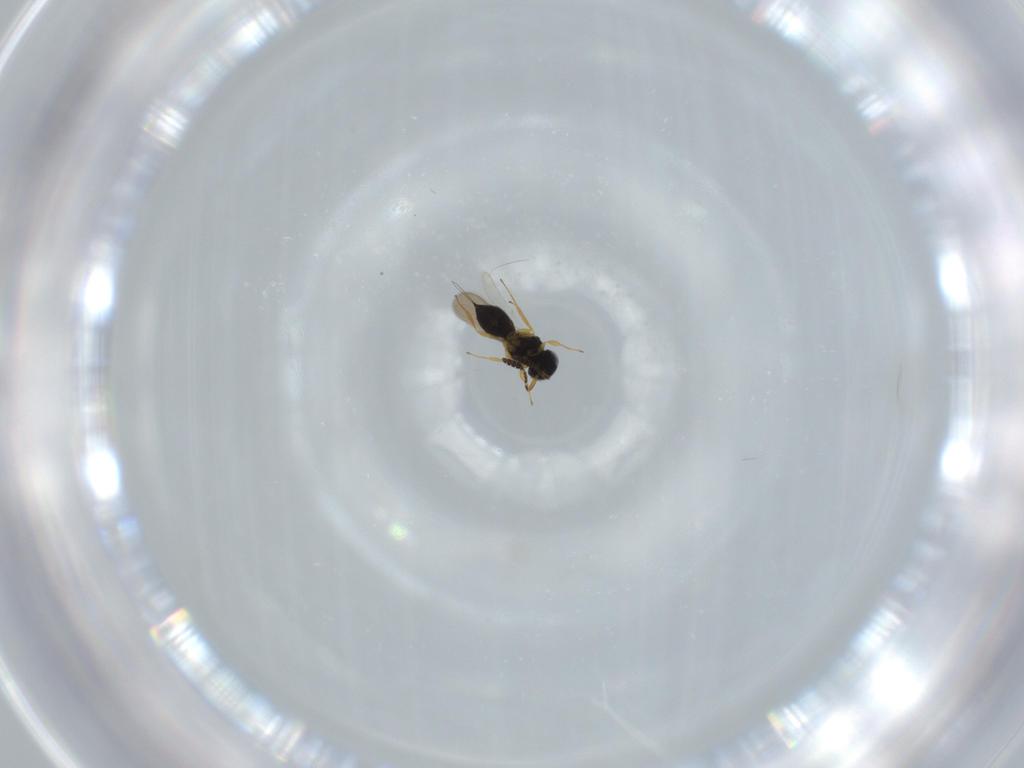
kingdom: Animalia
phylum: Arthropoda
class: Insecta
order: Hymenoptera
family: Scelionidae
